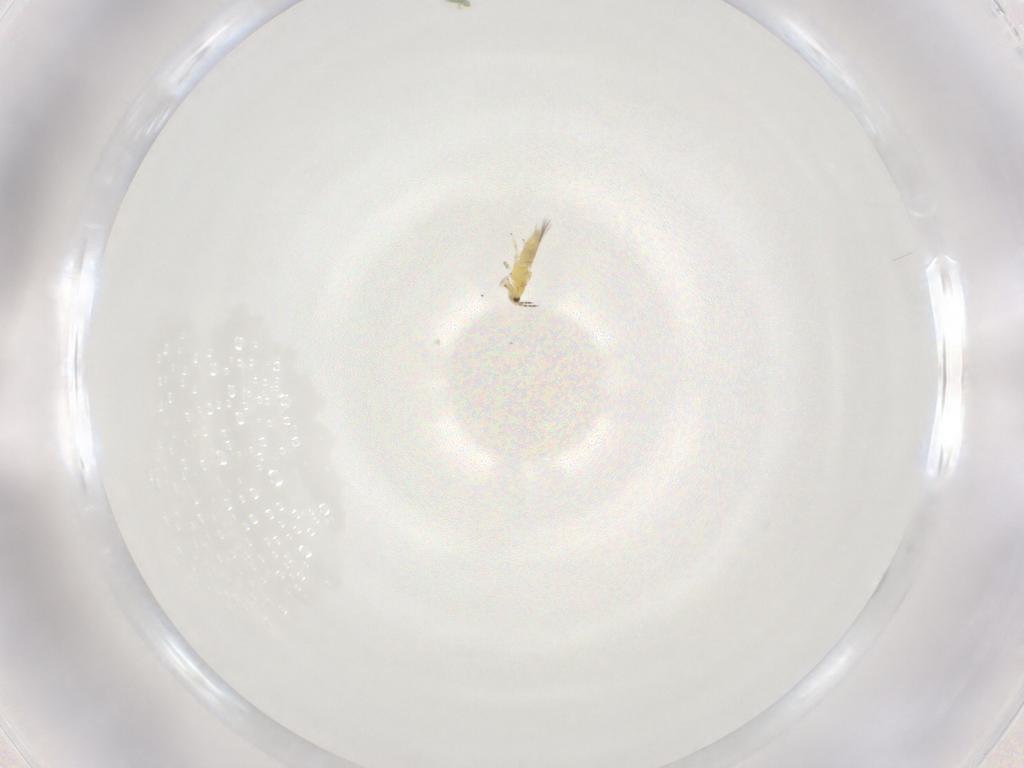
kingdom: Animalia
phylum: Arthropoda
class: Insecta
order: Thysanoptera
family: Thripidae
